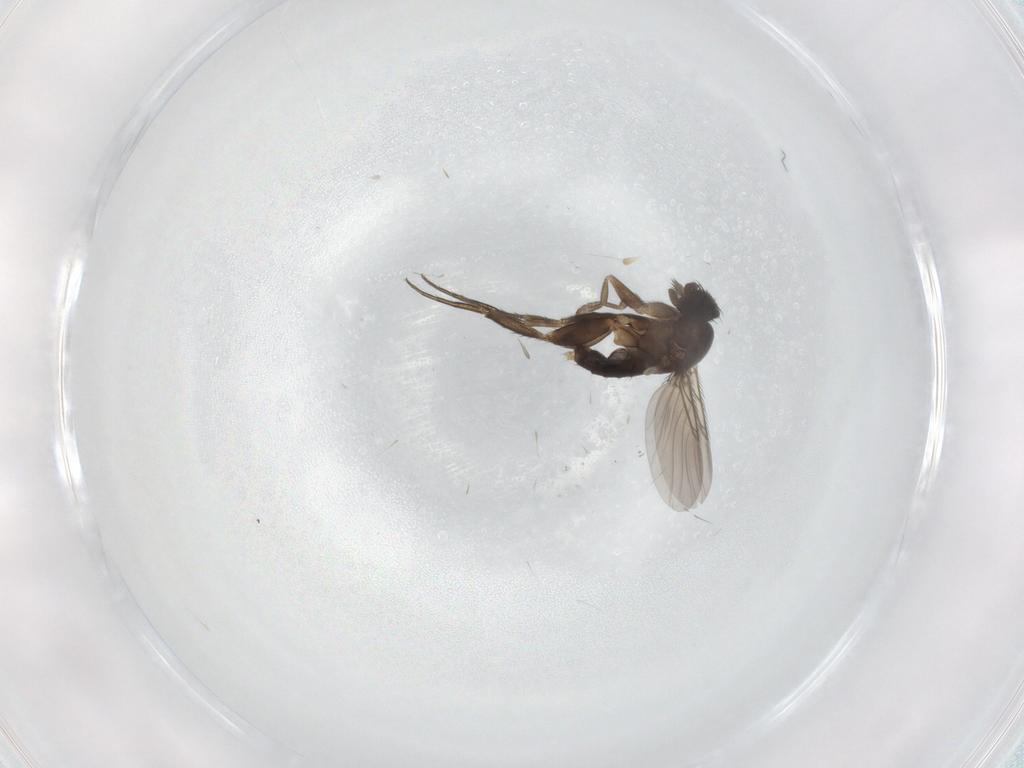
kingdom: Animalia
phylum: Arthropoda
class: Insecta
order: Diptera
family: Phoridae
